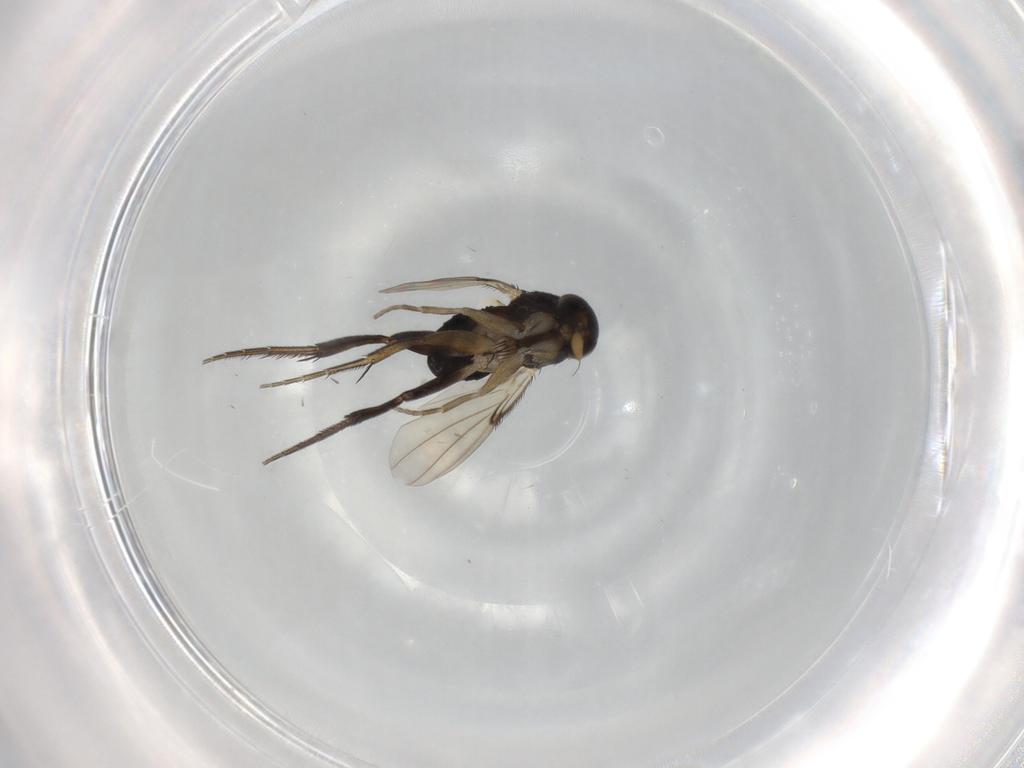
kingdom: Animalia
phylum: Arthropoda
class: Insecta
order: Diptera
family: Phoridae
